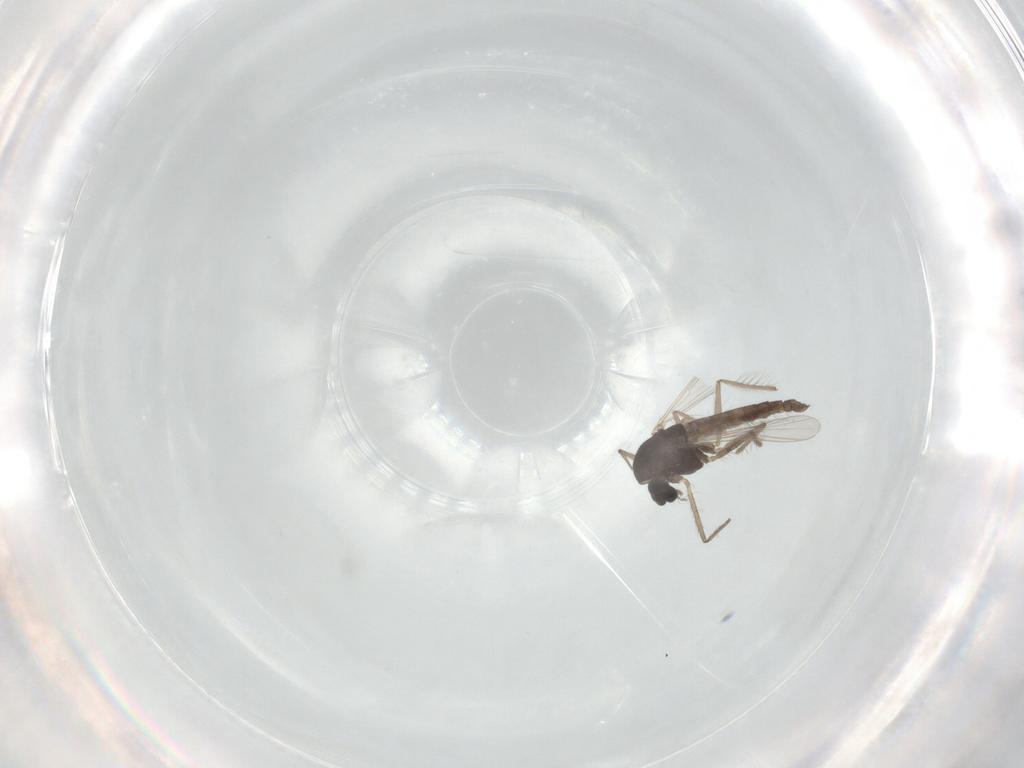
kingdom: Animalia
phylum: Arthropoda
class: Insecta
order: Diptera
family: Chironomidae
